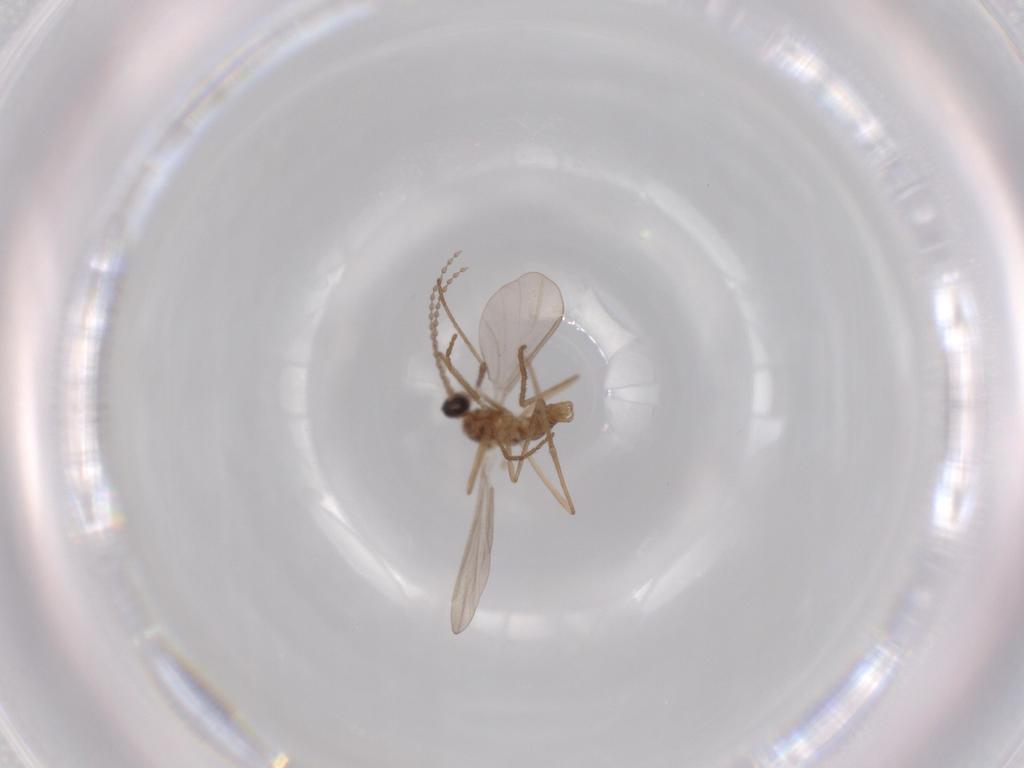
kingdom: Animalia
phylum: Arthropoda
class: Insecta
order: Diptera
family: Cecidomyiidae
